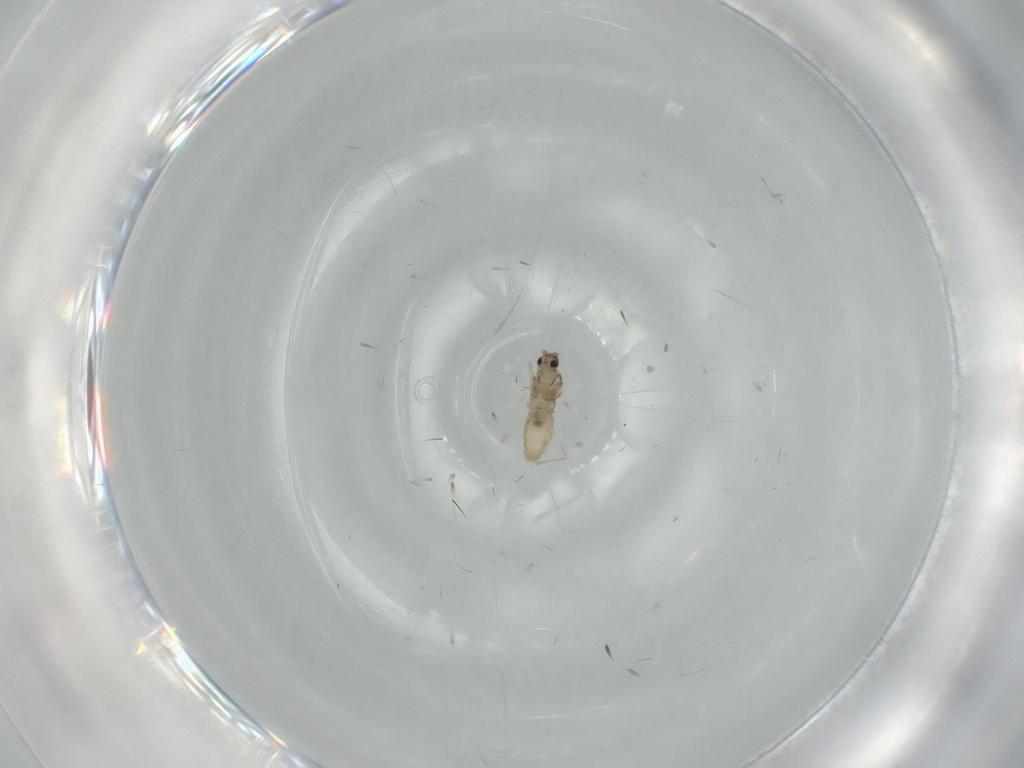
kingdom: Animalia
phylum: Arthropoda
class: Insecta
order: Diptera
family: Cecidomyiidae
